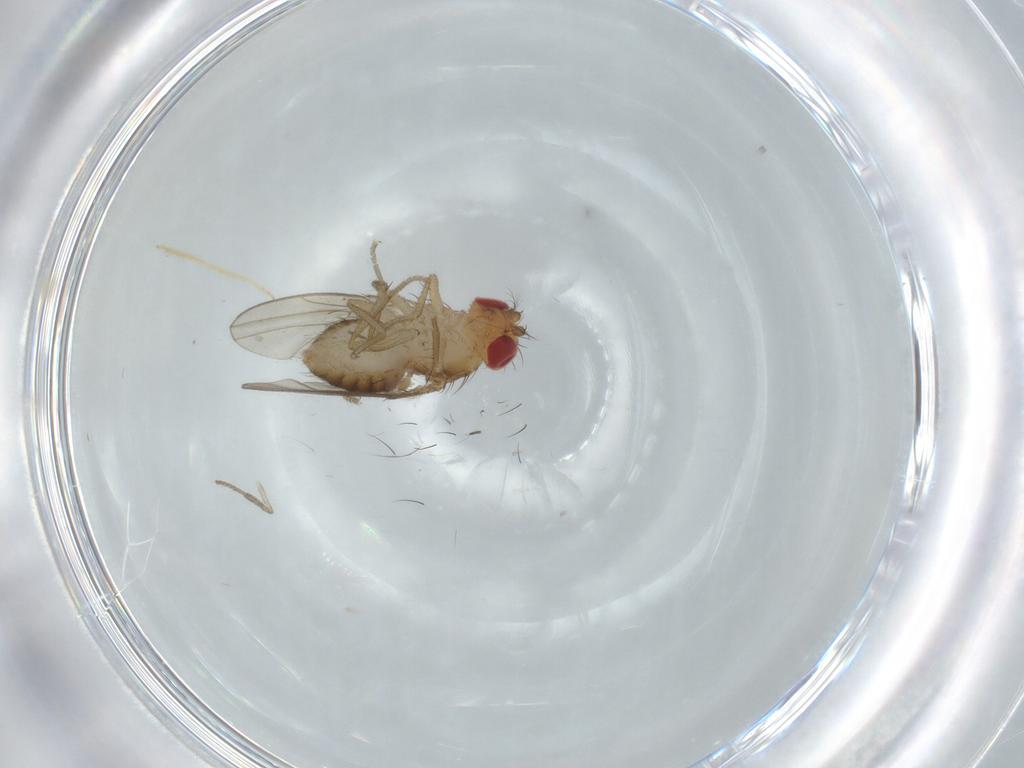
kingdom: Animalia
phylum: Arthropoda
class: Insecta
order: Diptera
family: Drosophilidae
